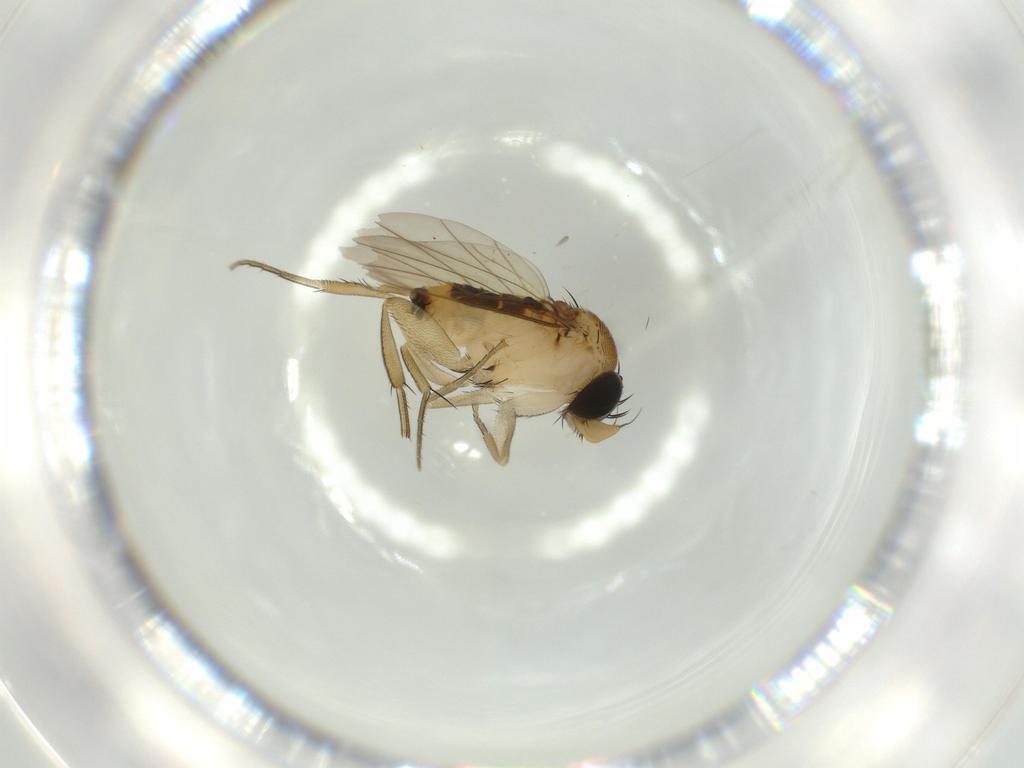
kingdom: Animalia
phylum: Arthropoda
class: Insecta
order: Diptera
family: Phoridae
